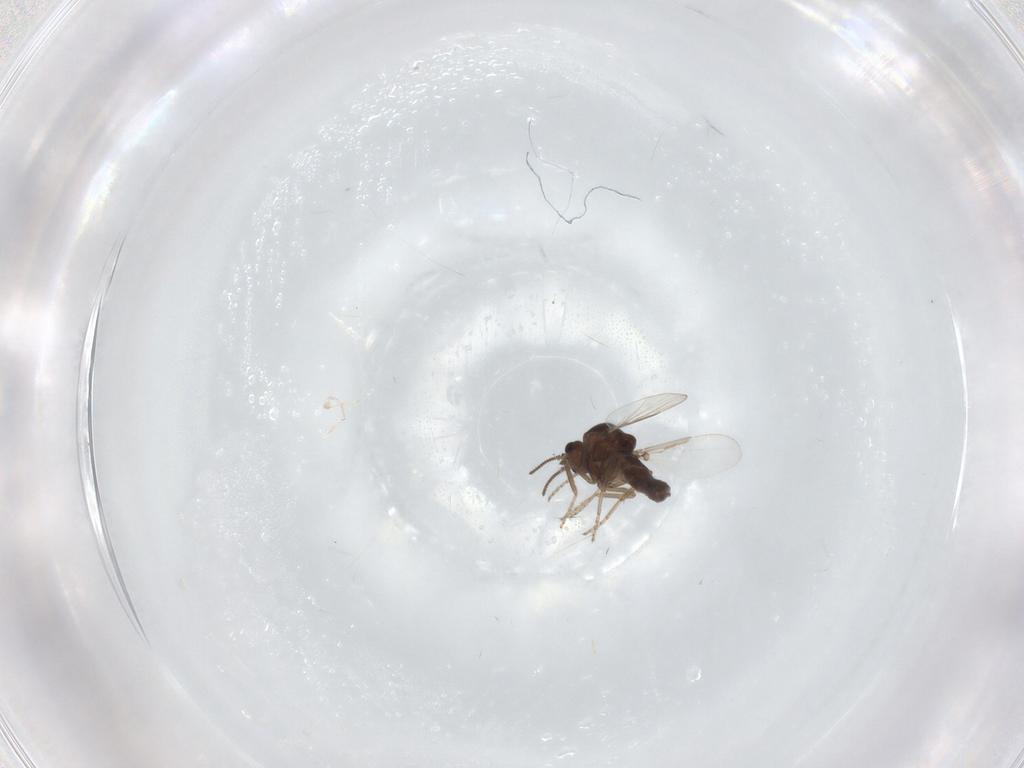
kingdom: Animalia
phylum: Arthropoda
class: Insecta
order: Diptera
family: Ceratopogonidae
